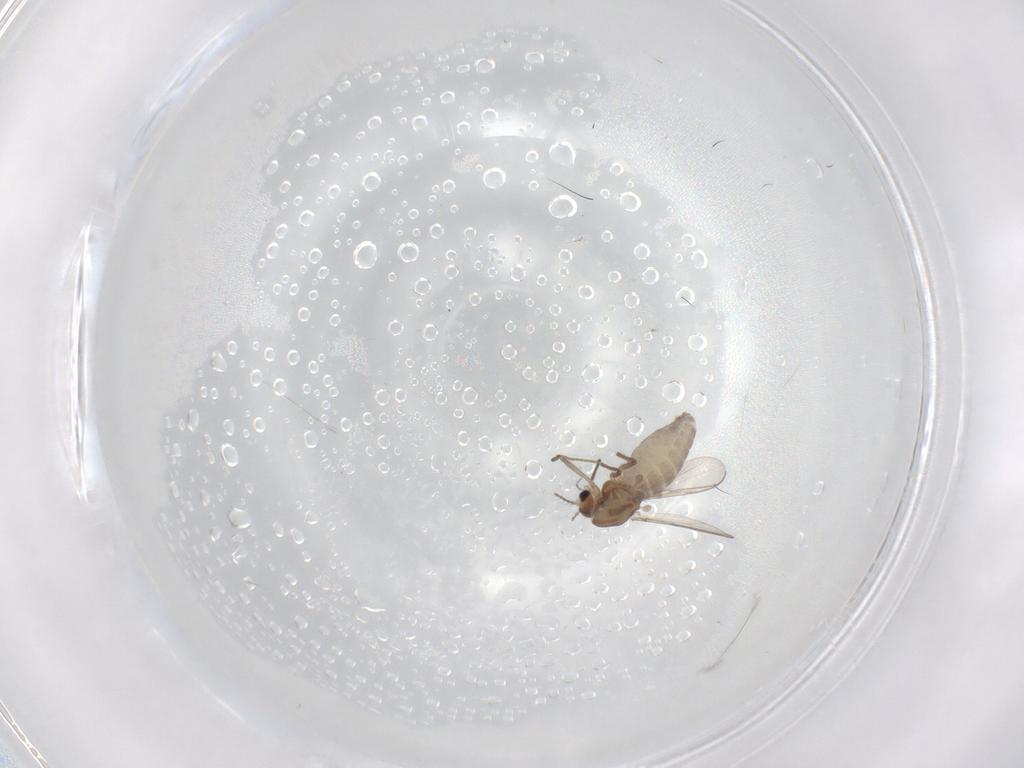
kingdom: Animalia
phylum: Arthropoda
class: Insecta
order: Diptera
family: Chironomidae
